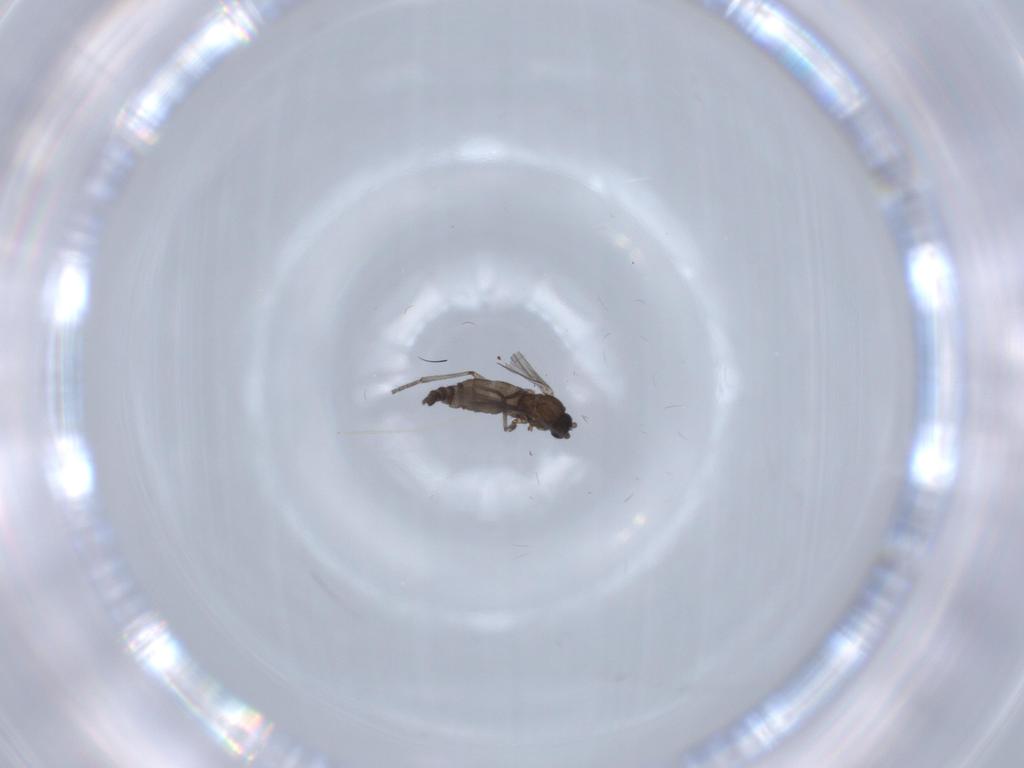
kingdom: Animalia
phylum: Arthropoda
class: Insecta
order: Diptera
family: Sciaridae
